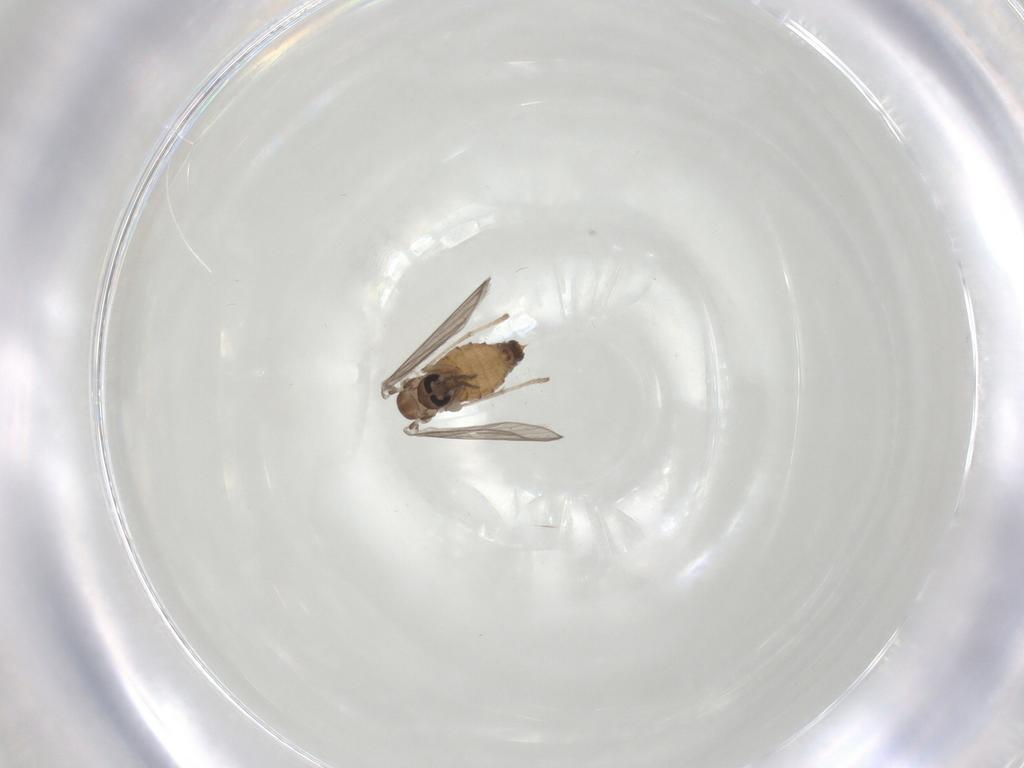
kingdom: Animalia
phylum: Arthropoda
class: Insecta
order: Diptera
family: Psychodidae
